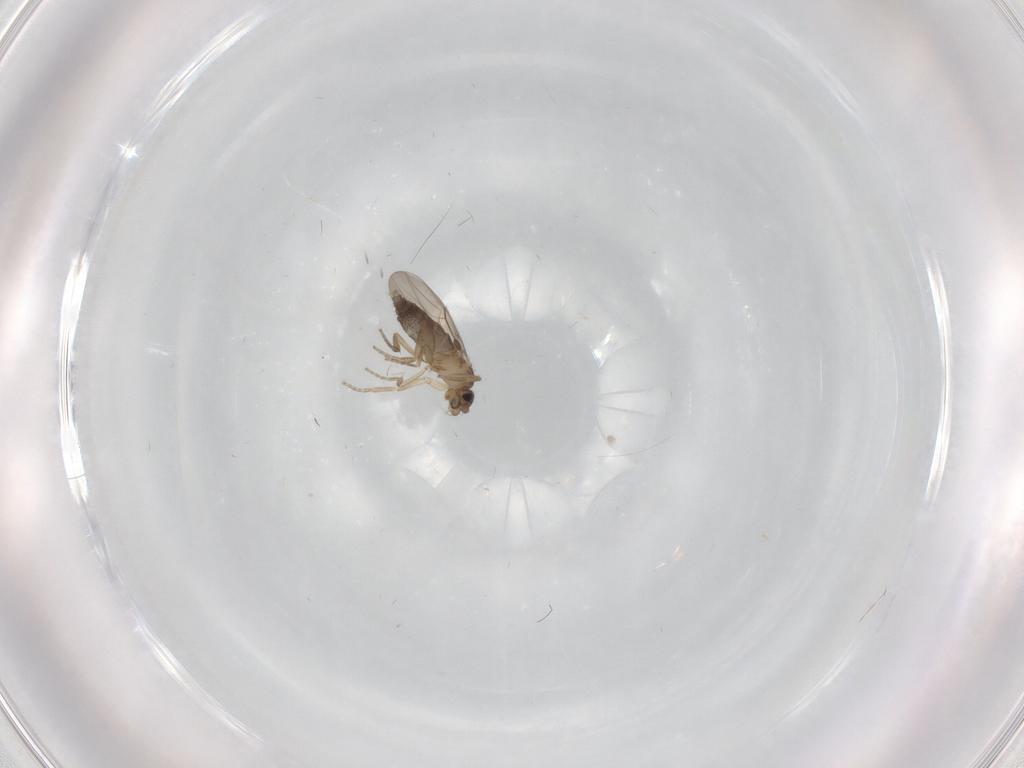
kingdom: Animalia
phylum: Arthropoda
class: Insecta
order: Diptera
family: Phoridae
